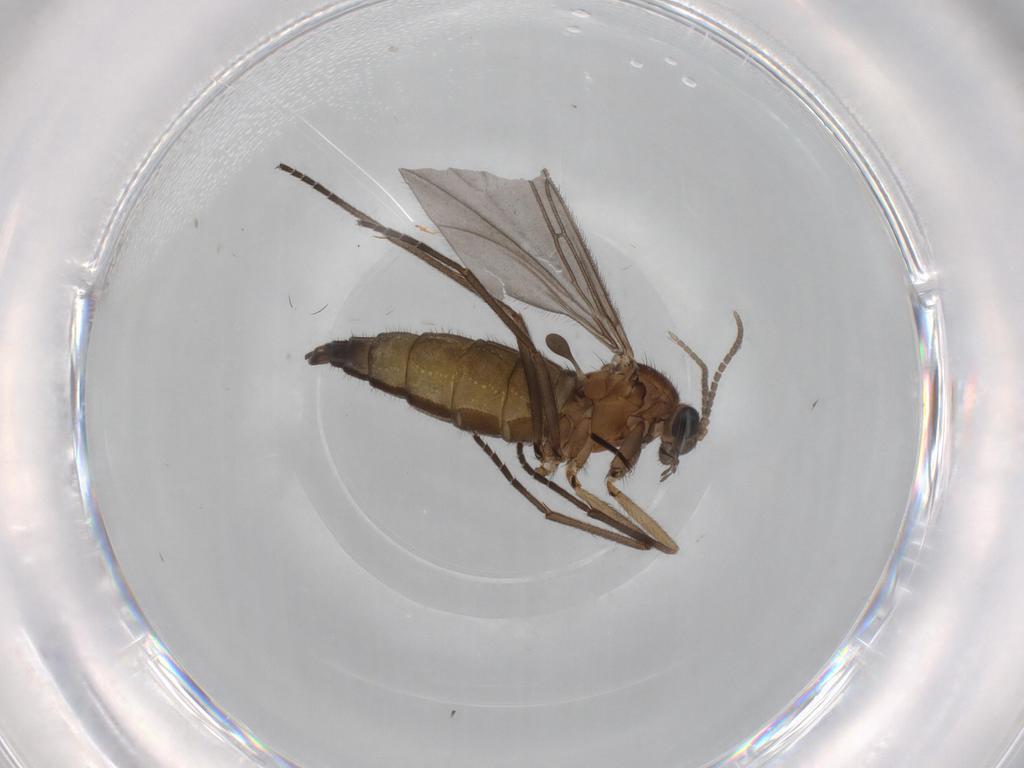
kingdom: Animalia
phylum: Arthropoda
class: Insecta
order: Diptera
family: Sciaridae
